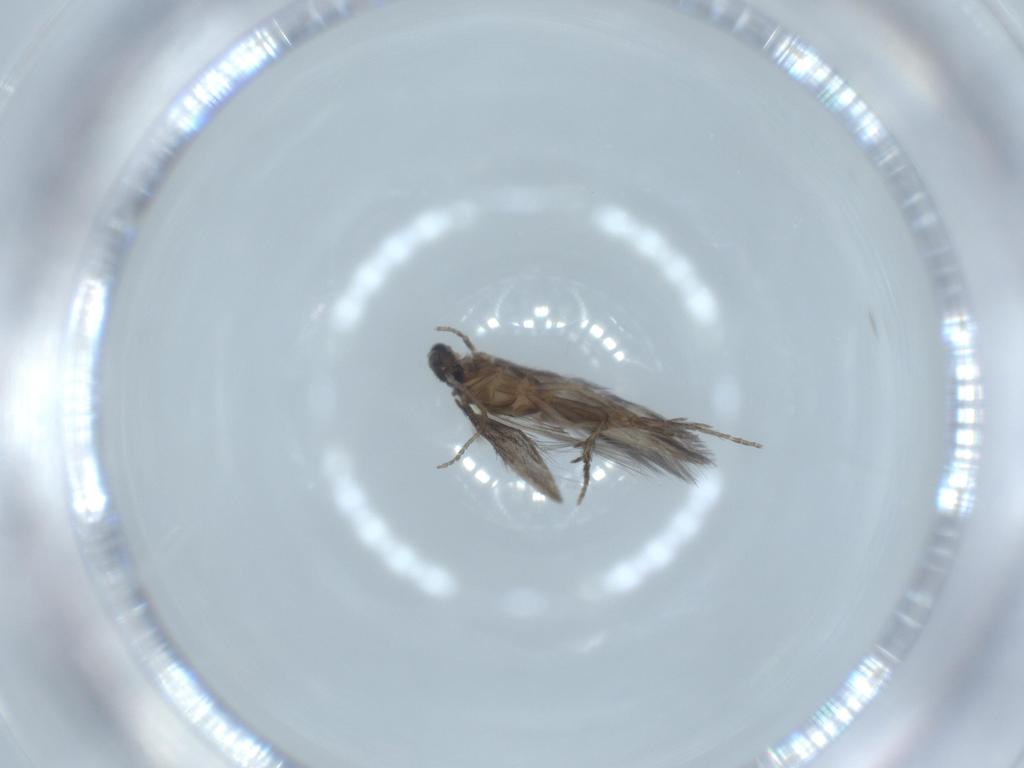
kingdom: Animalia
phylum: Arthropoda
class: Insecta
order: Trichoptera
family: Hydroptilidae
